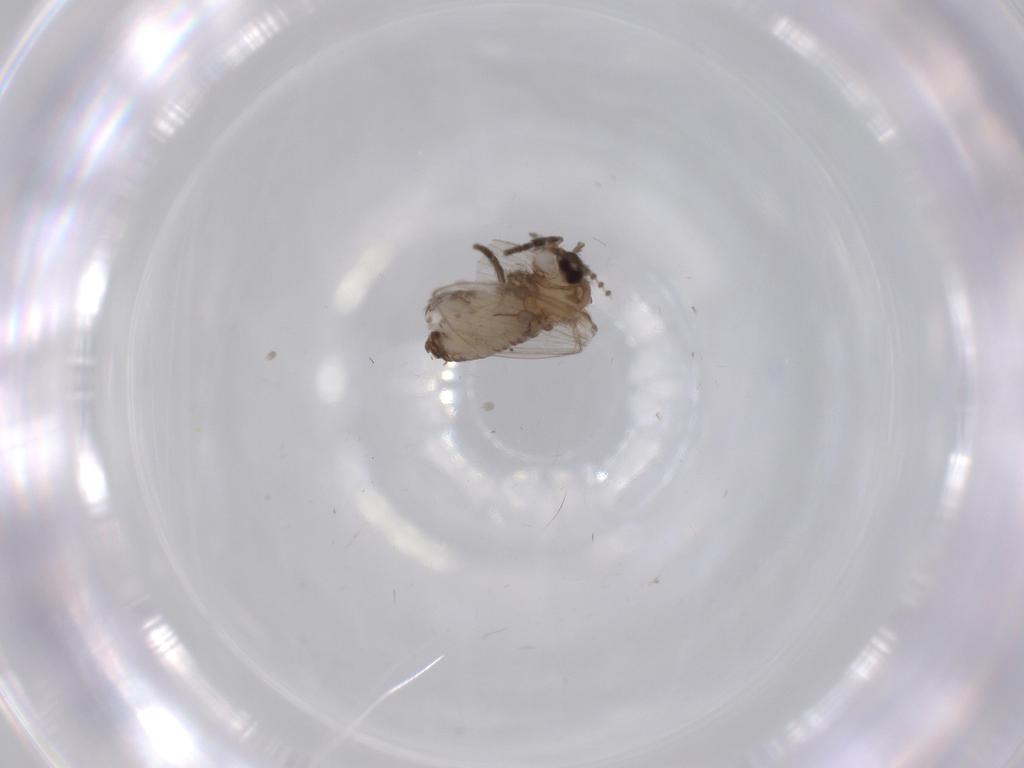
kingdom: Animalia
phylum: Arthropoda
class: Insecta
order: Diptera
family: Psychodidae
